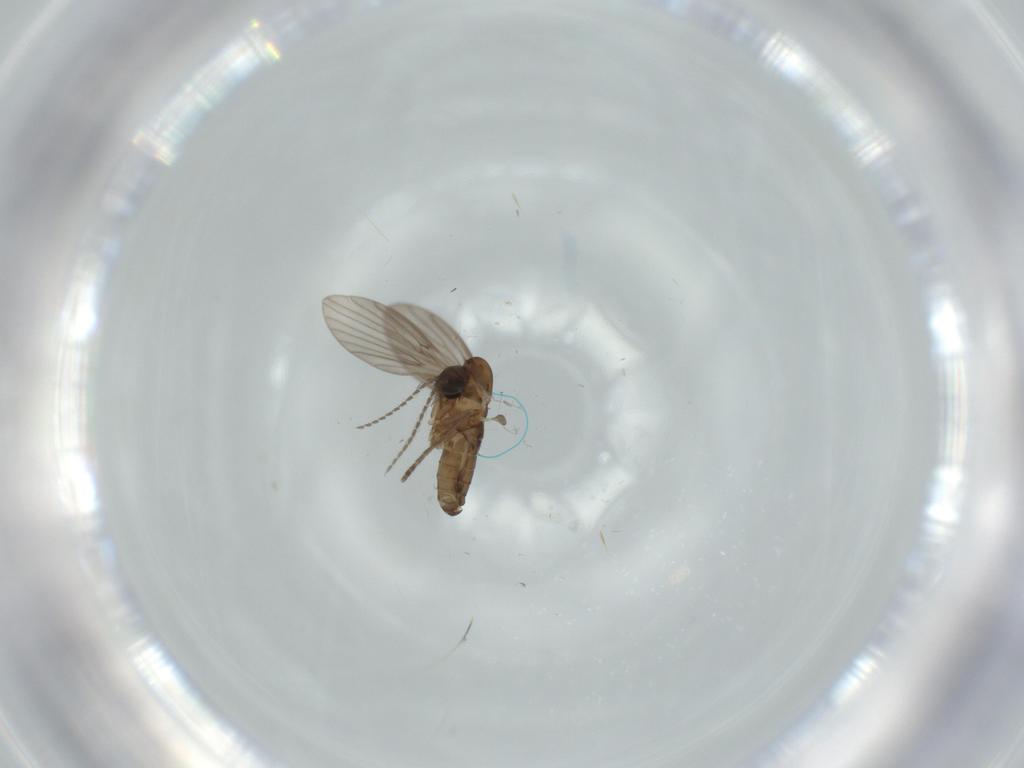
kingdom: Animalia
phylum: Arthropoda
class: Insecta
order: Diptera
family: Psychodidae
